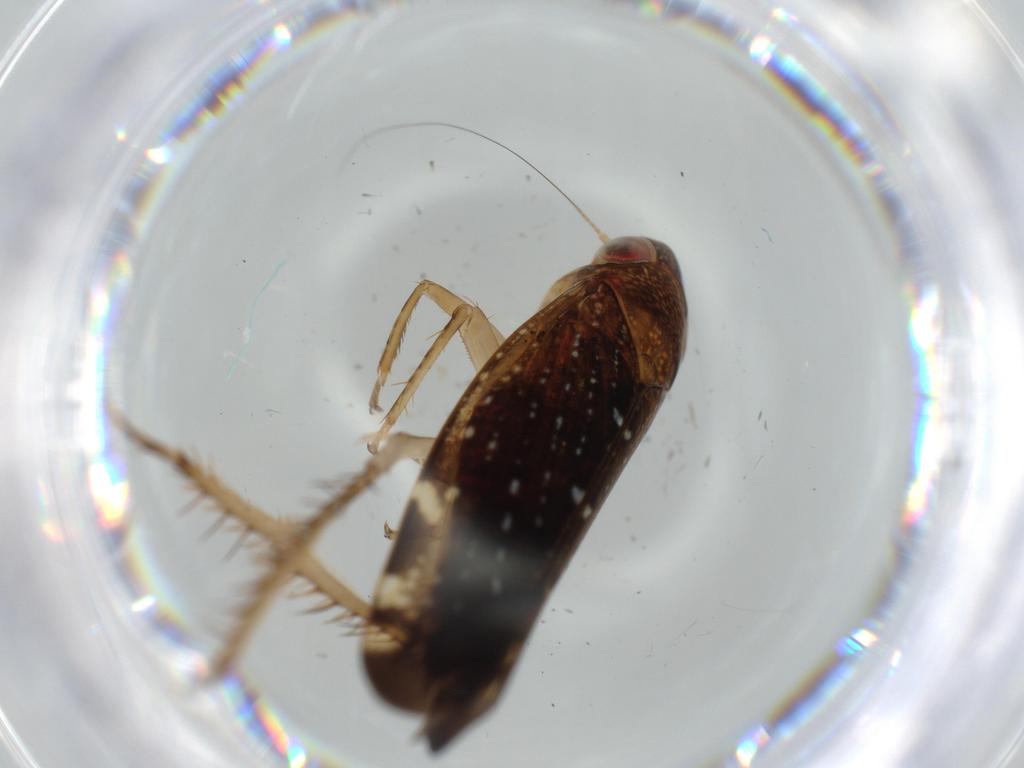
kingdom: Animalia
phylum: Arthropoda
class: Insecta
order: Hemiptera
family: Cicadellidae
